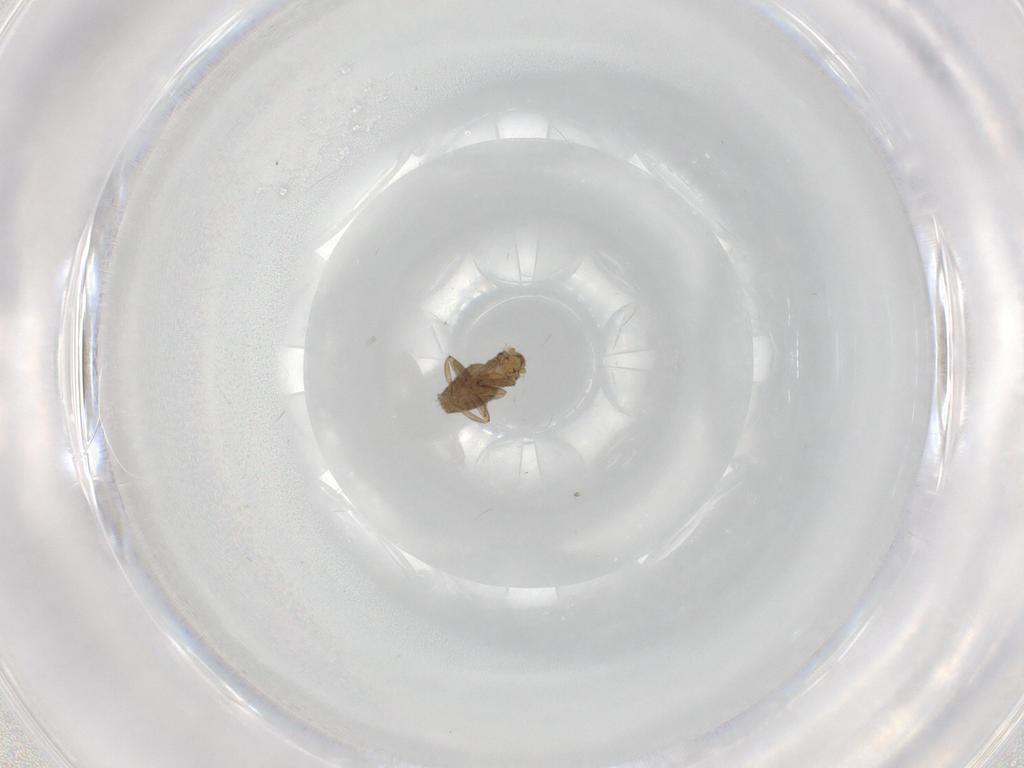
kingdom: Animalia
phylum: Arthropoda
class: Insecta
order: Diptera
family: Phoridae
